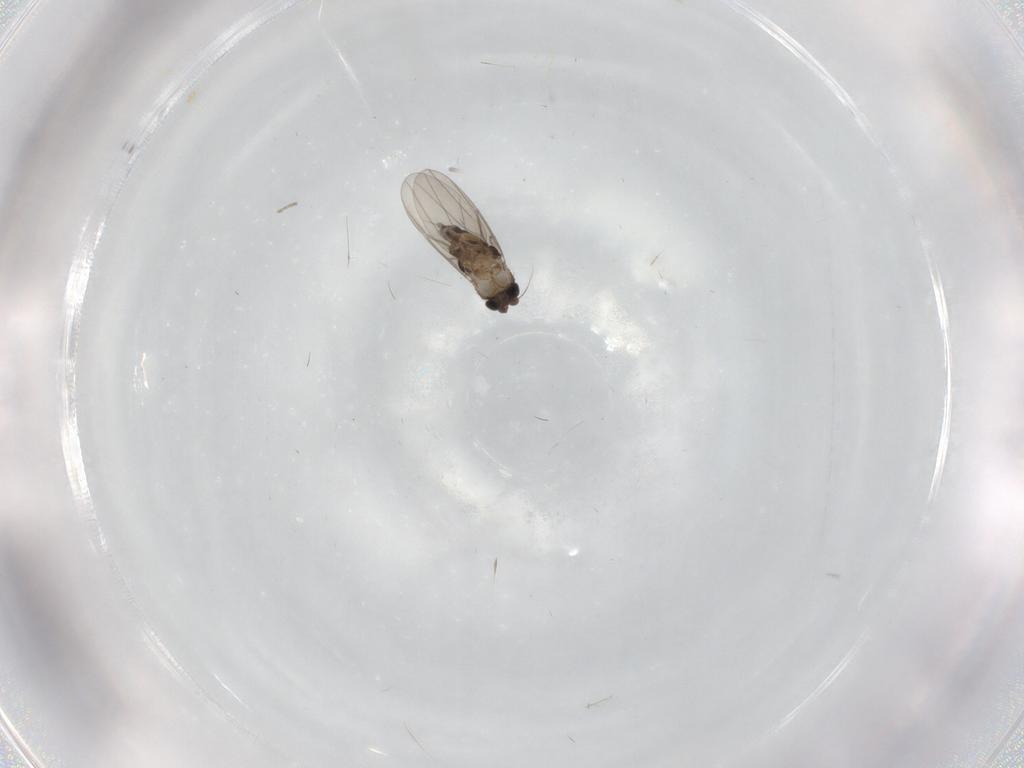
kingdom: Animalia
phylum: Arthropoda
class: Insecta
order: Diptera
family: Phoridae
